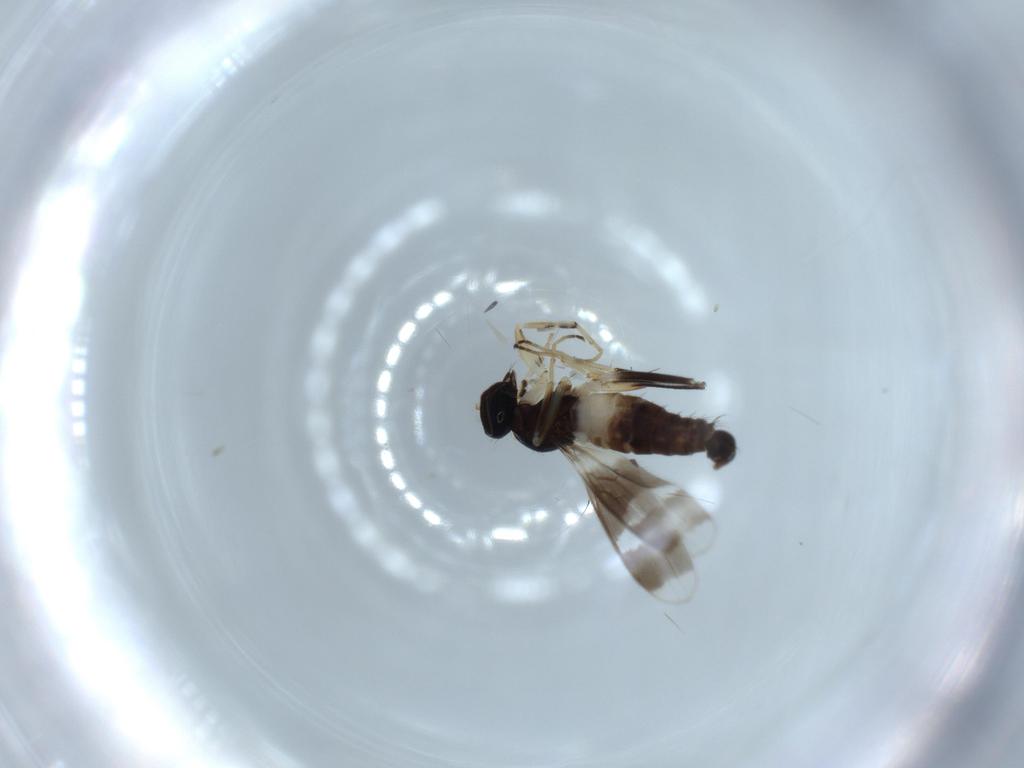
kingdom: Animalia
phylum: Arthropoda
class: Insecta
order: Diptera
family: Hybotidae
